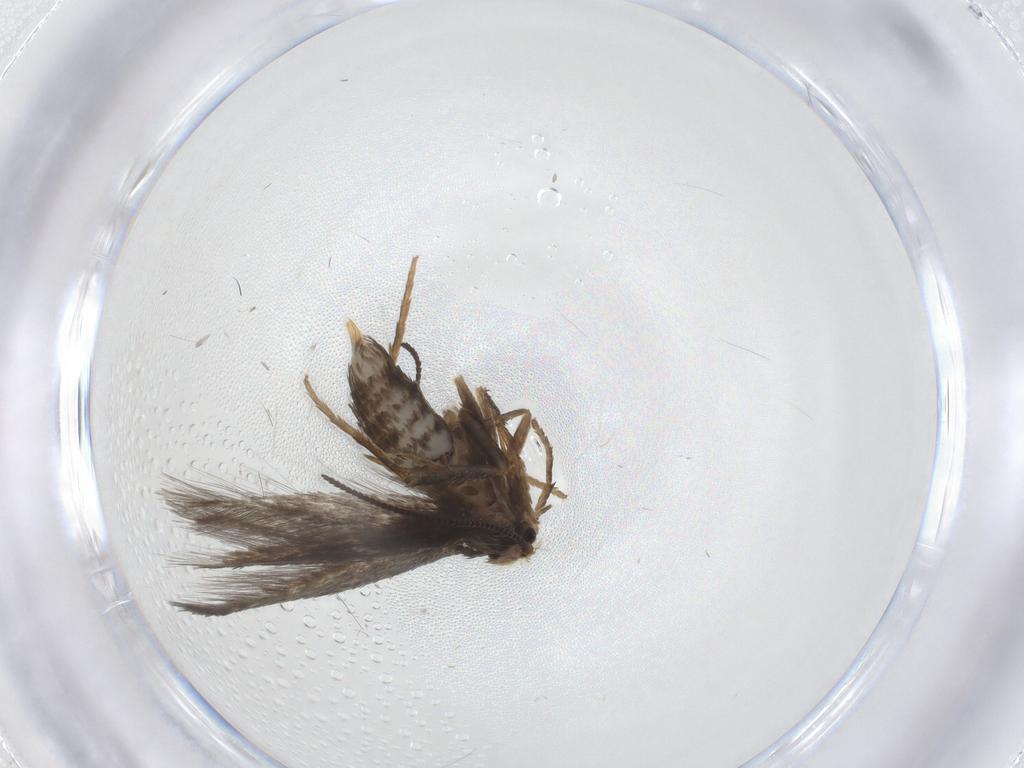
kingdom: Animalia
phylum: Arthropoda
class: Insecta
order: Lepidoptera
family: Nepticulidae
